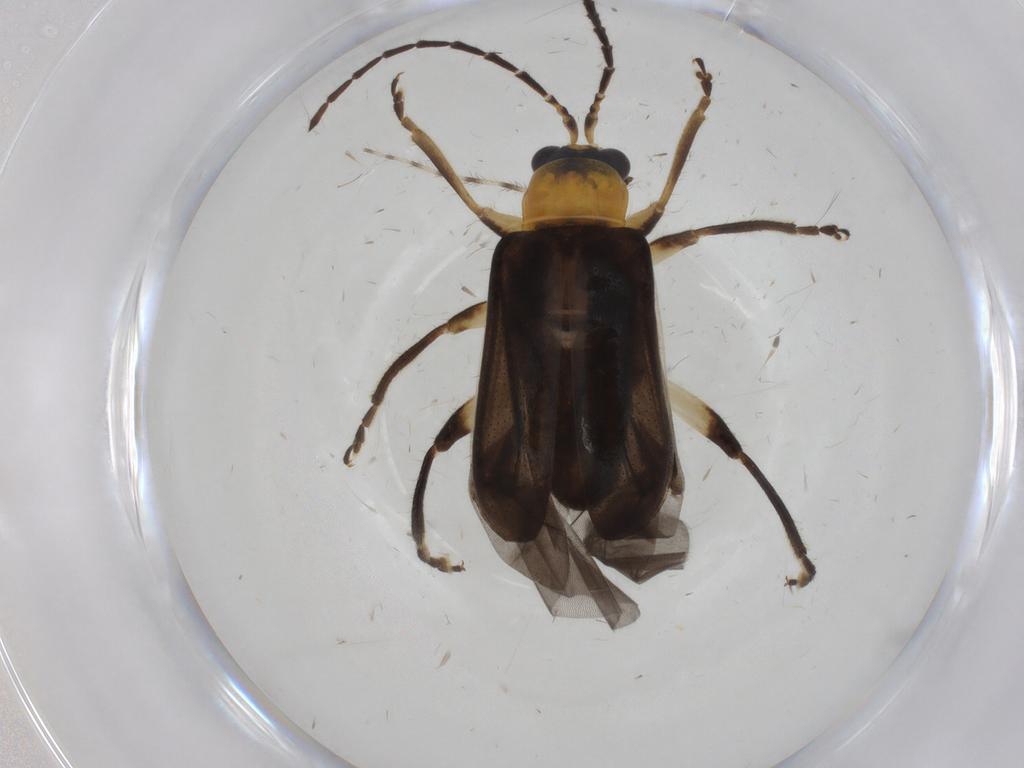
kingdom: Animalia
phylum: Arthropoda
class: Insecta
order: Coleoptera
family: Chrysomelidae
